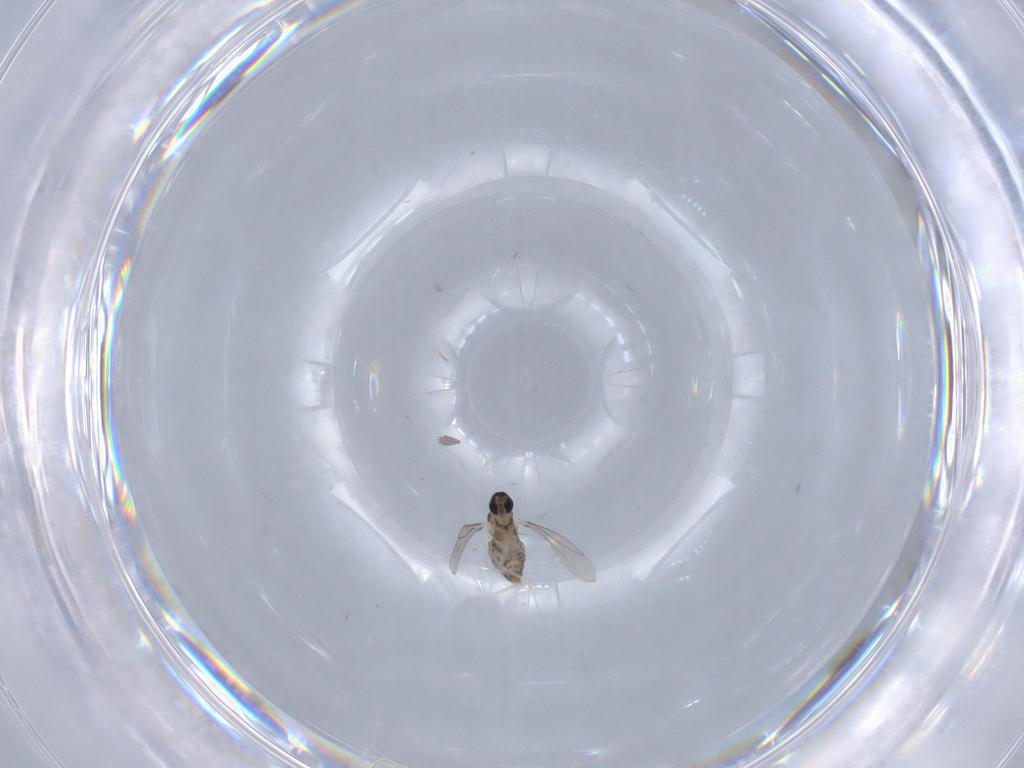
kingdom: Animalia
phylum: Arthropoda
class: Insecta
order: Diptera
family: Cecidomyiidae
